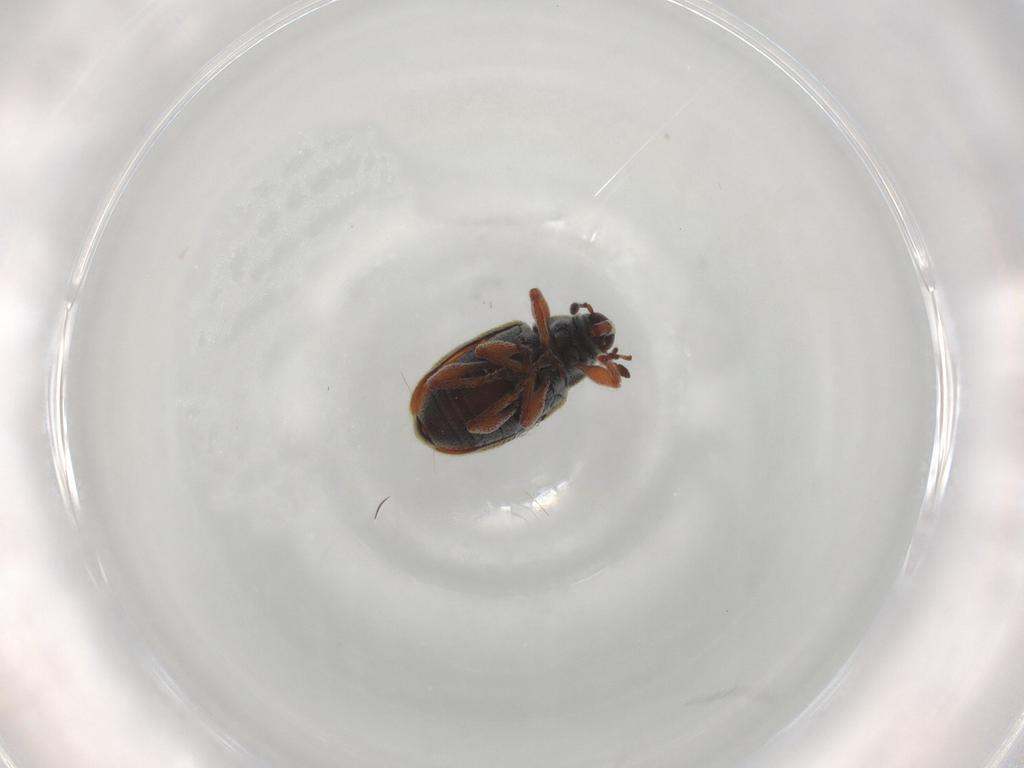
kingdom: Animalia
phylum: Arthropoda
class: Insecta
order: Coleoptera
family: Curculionidae
